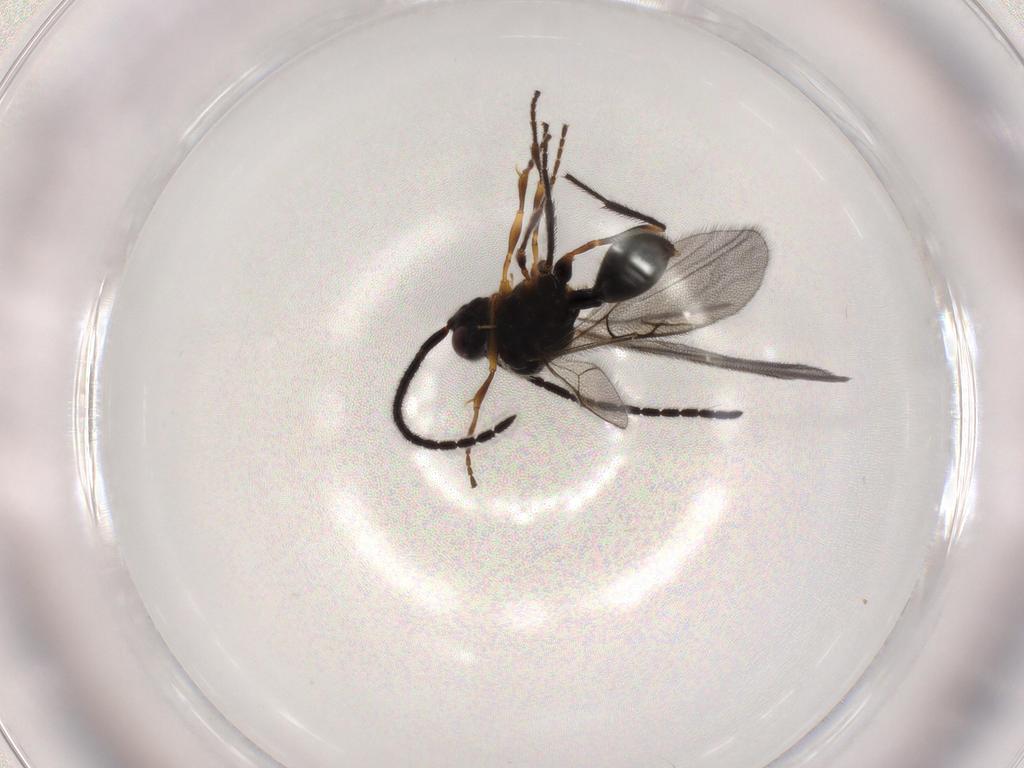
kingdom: Animalia
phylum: Arthropoda
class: Insecta
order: Hymenoptera
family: Diapriidae
